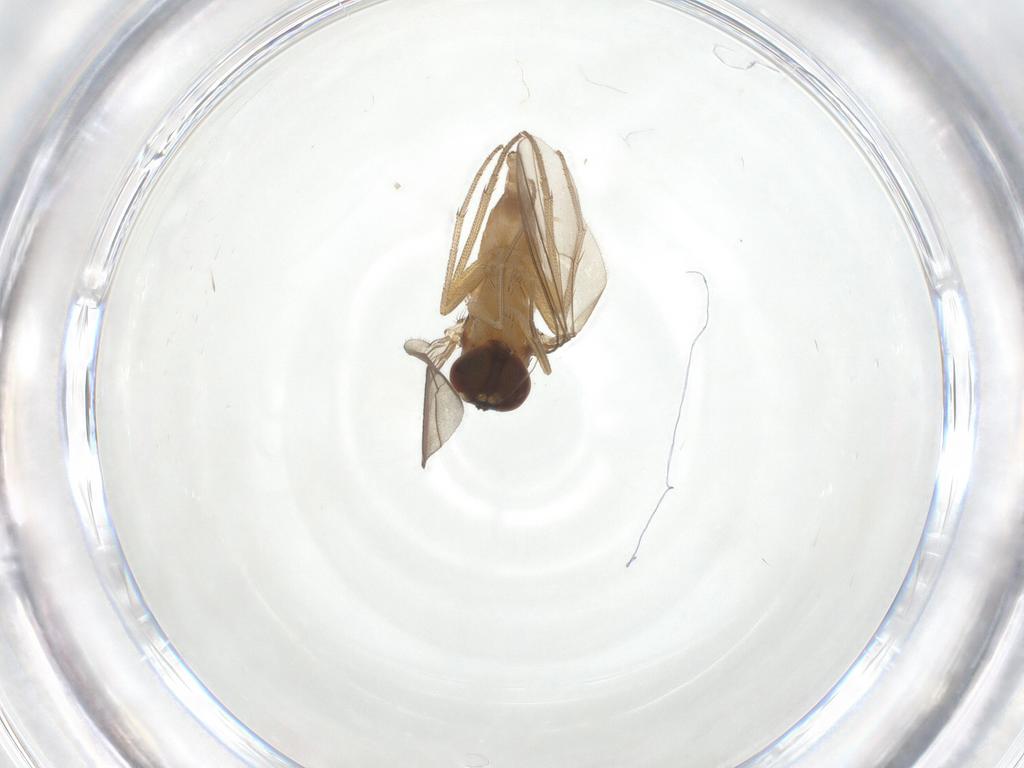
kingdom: Animalia
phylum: Arthropoda
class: Insecta
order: Diptera
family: Dolichopodidae
